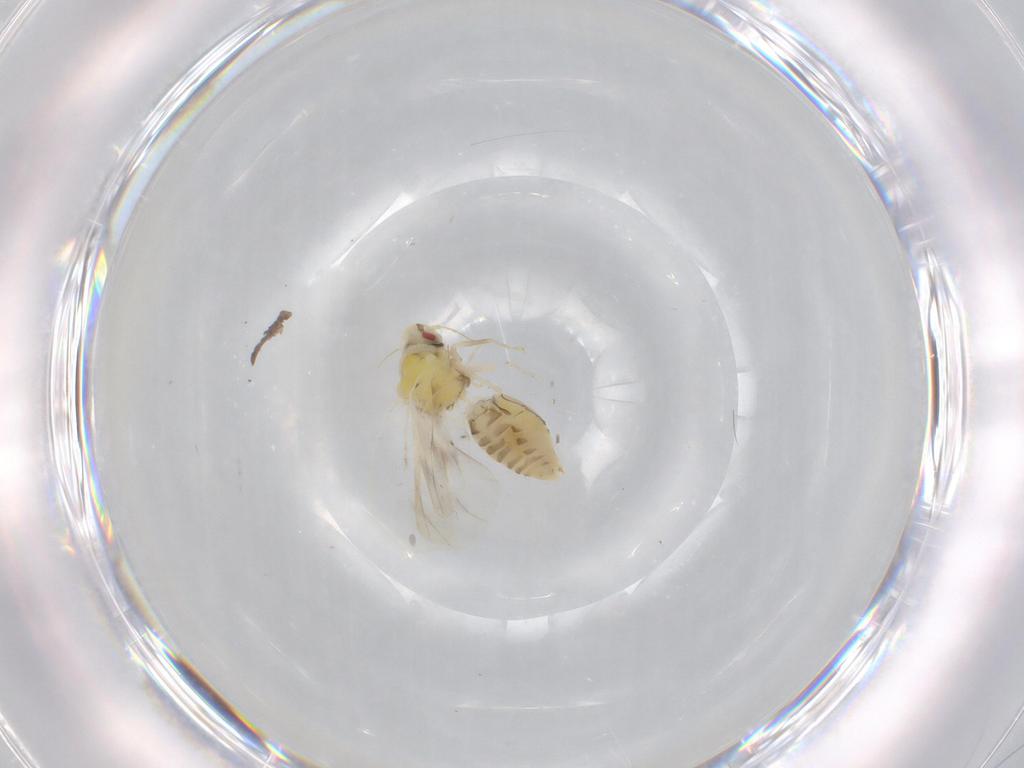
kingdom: Animalia
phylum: Arthropoda
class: Insecta
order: Hemiptera
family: Aleyrodidae
